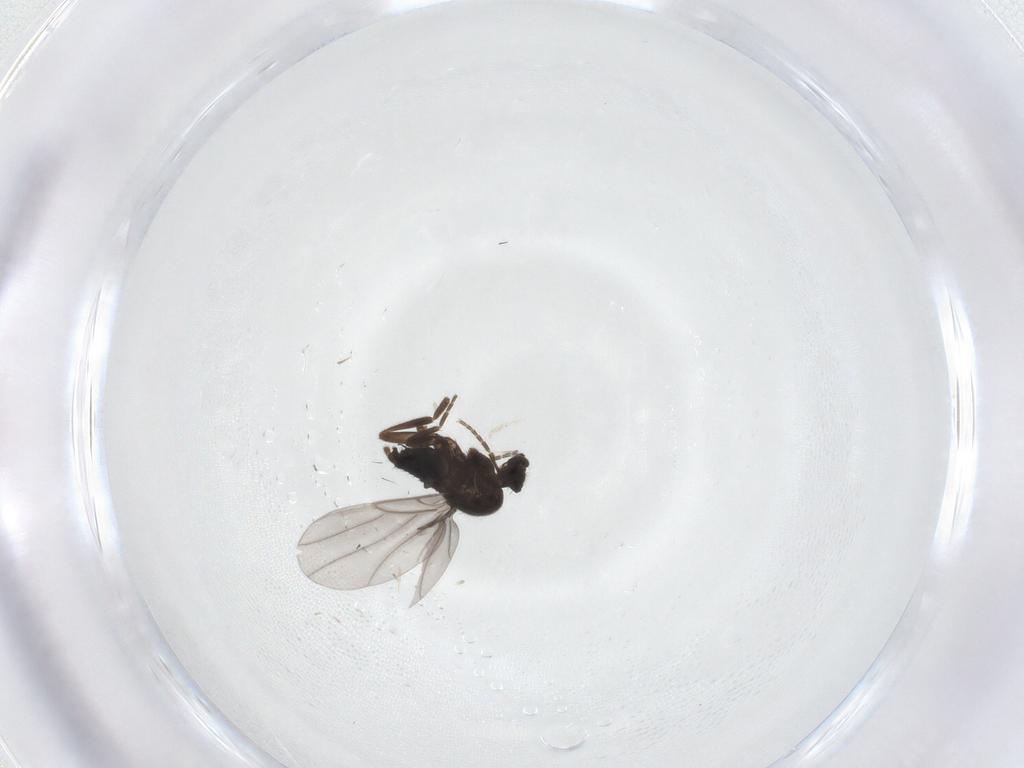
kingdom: Animalia
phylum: Arthropoda
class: Insecta
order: Diptera
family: Tachinidae
